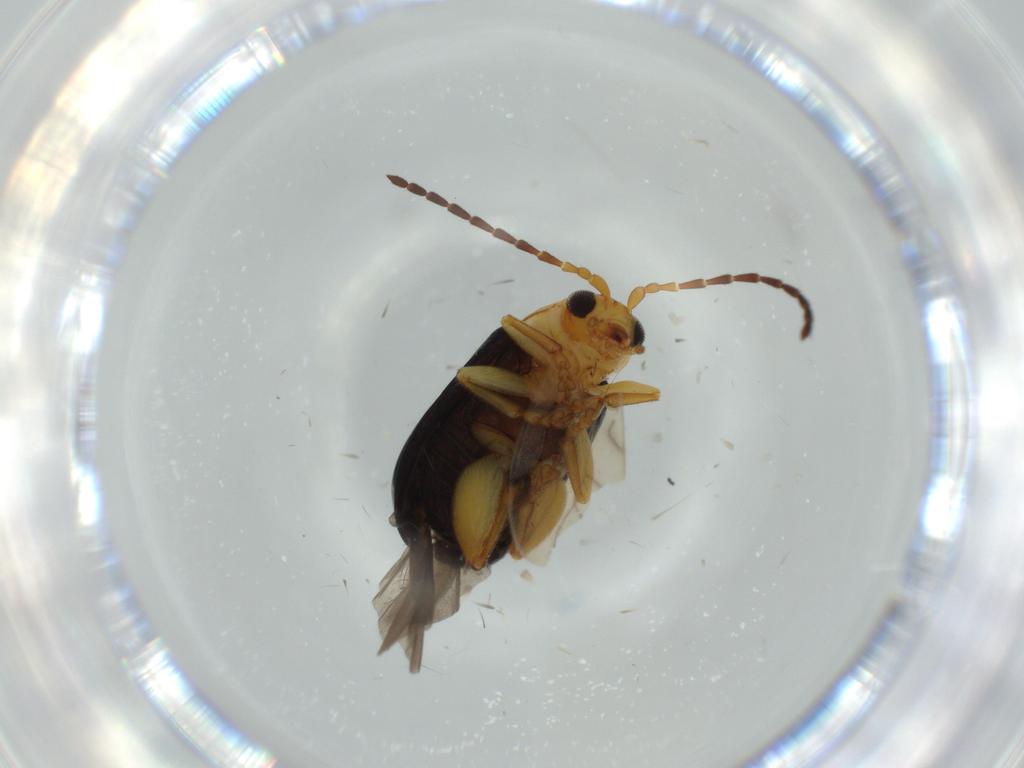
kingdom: Animalia
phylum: Arthropoda
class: Insecta
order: Coleoptera
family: Chrysomelidae
